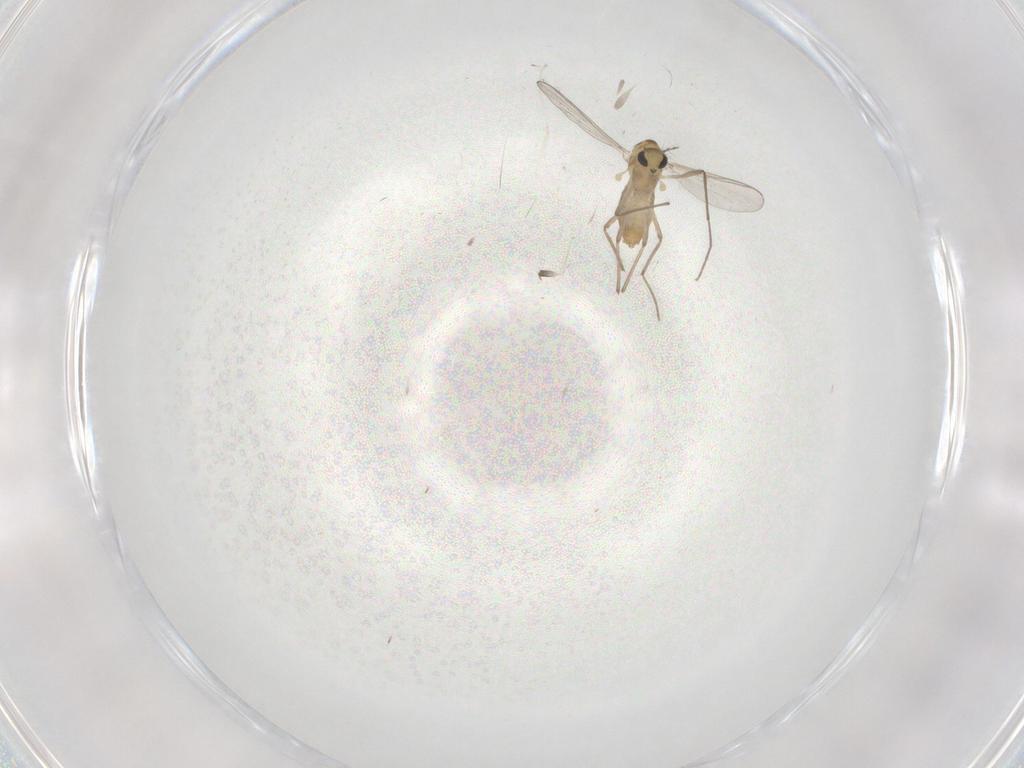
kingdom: Animalia
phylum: Arthropoda
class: Insecta
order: Diptera
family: Cecidomyiidae
